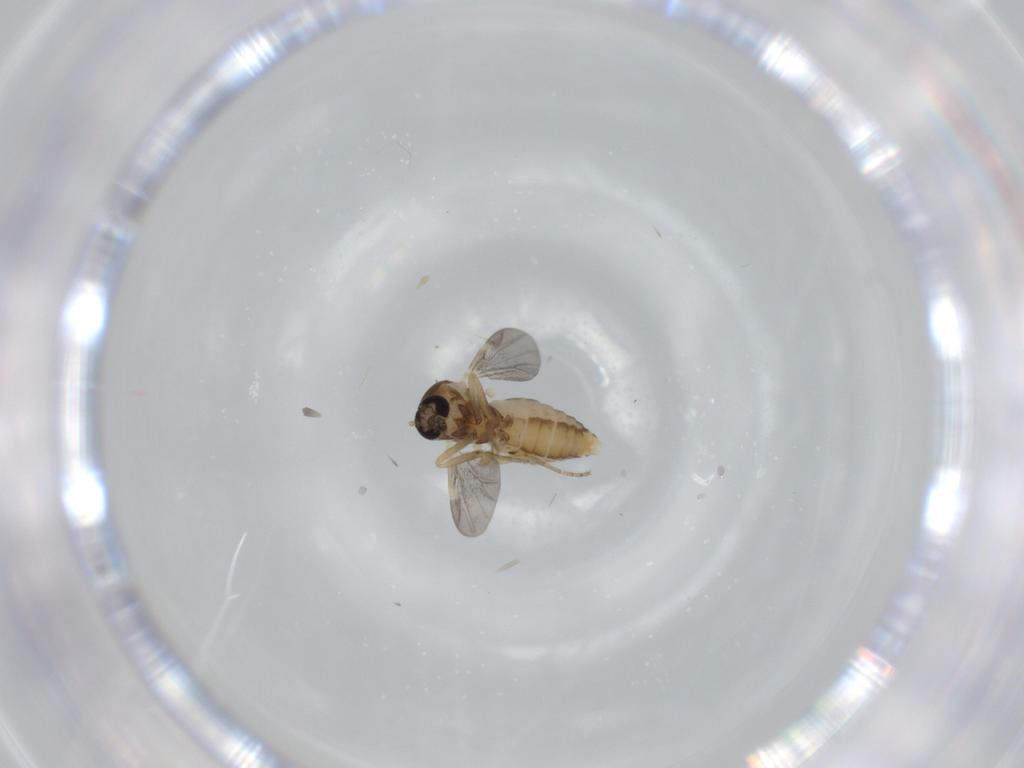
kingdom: Animalia
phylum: Arthropoda
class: Insecta
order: Diptera
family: Ceratopogonidae
